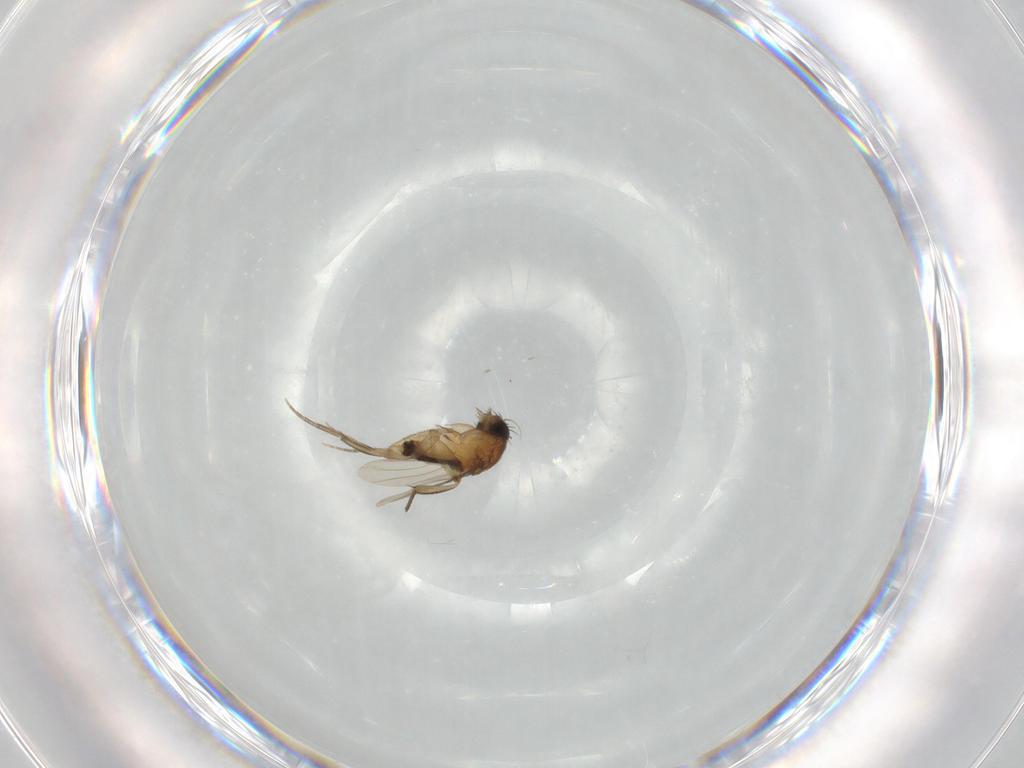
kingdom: Animalia
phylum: Arthropoda
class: Insecta
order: Diptera
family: Phoridae
